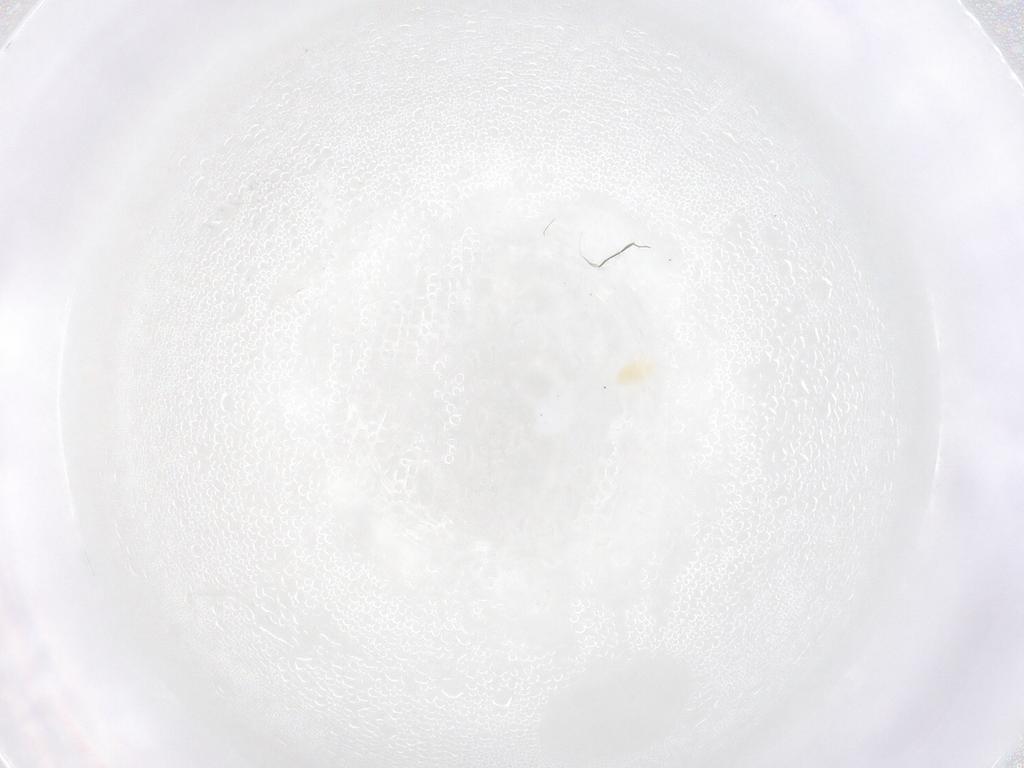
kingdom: Animalia
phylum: Arthropoda
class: Arachnida
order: Trombidiformes
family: Eupodidae
